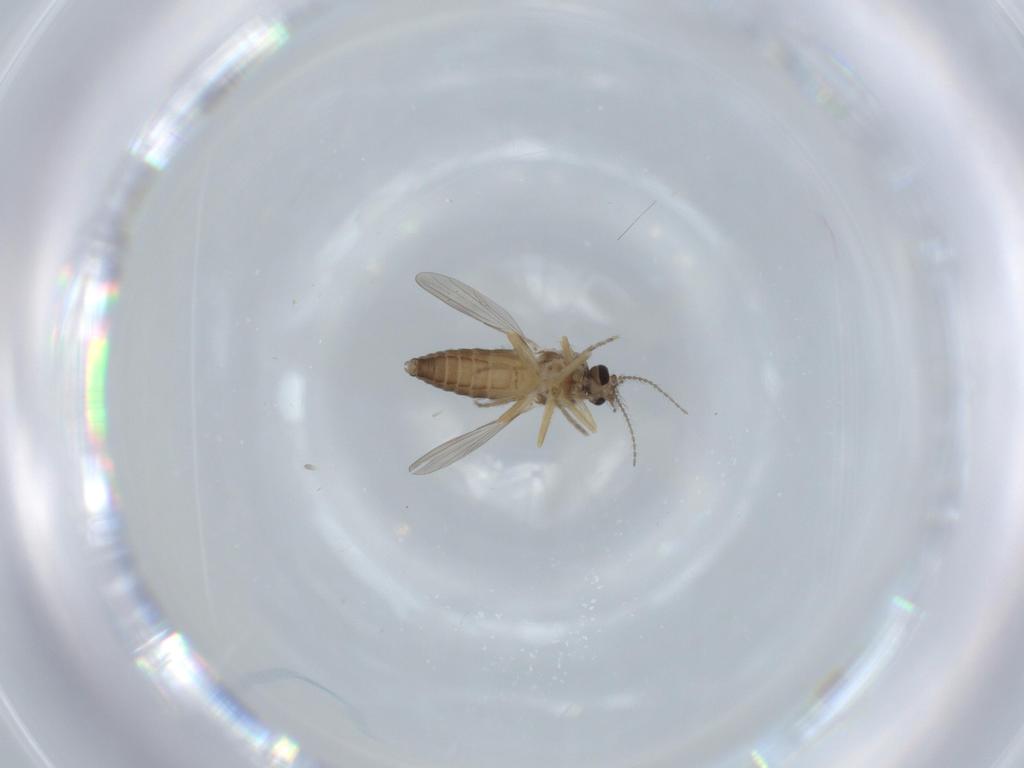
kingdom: Animalia
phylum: Arthropoda
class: Insecta
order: Diptera
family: Ceratopogonidae
